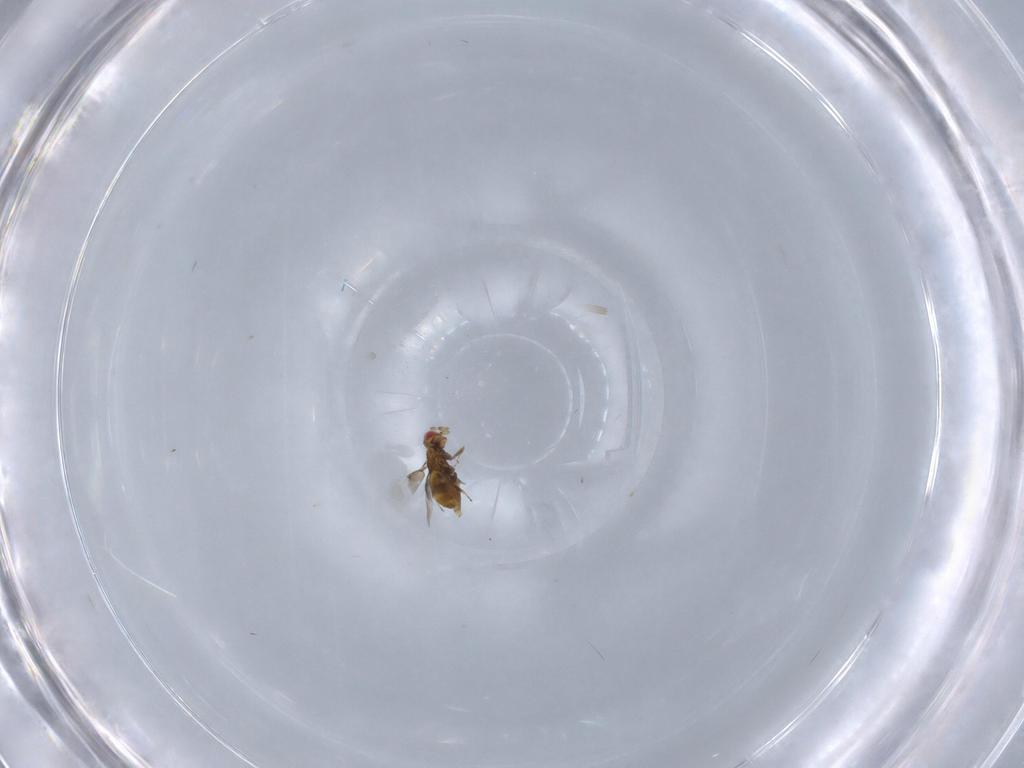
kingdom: Animalia
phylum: Arthropoda
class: Insecta
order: Hymenoptera
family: Trichogrammatidae
